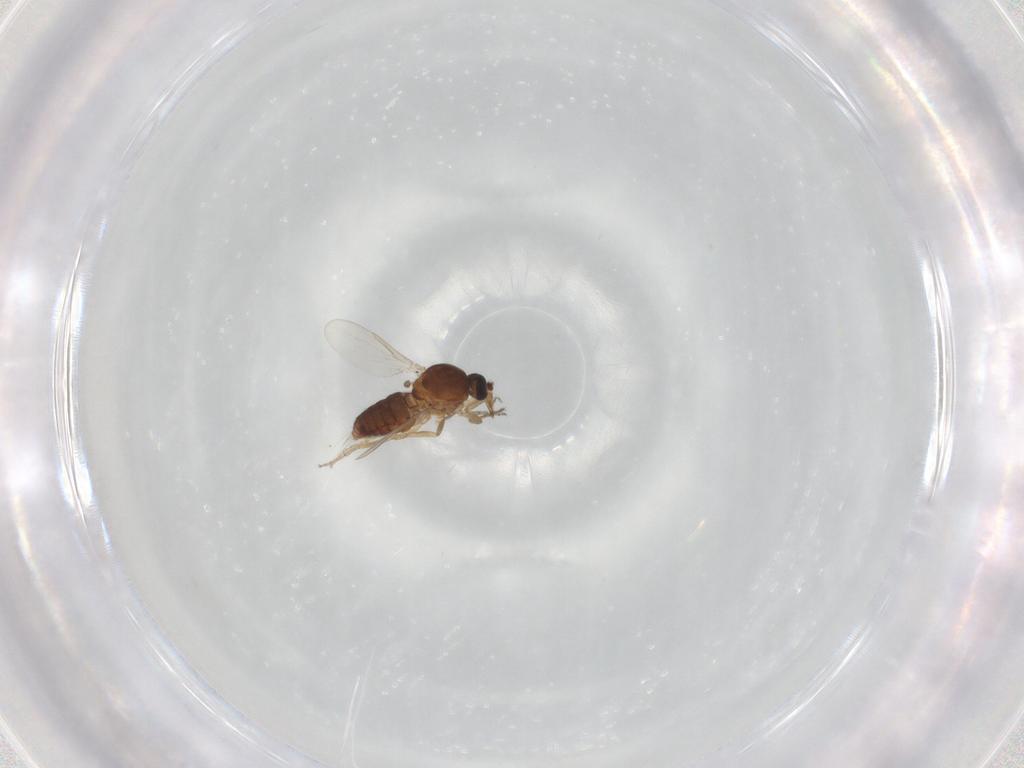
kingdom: Animalia
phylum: Arthropoda
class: Insecta
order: Diptera
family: Ceratopogonidae
